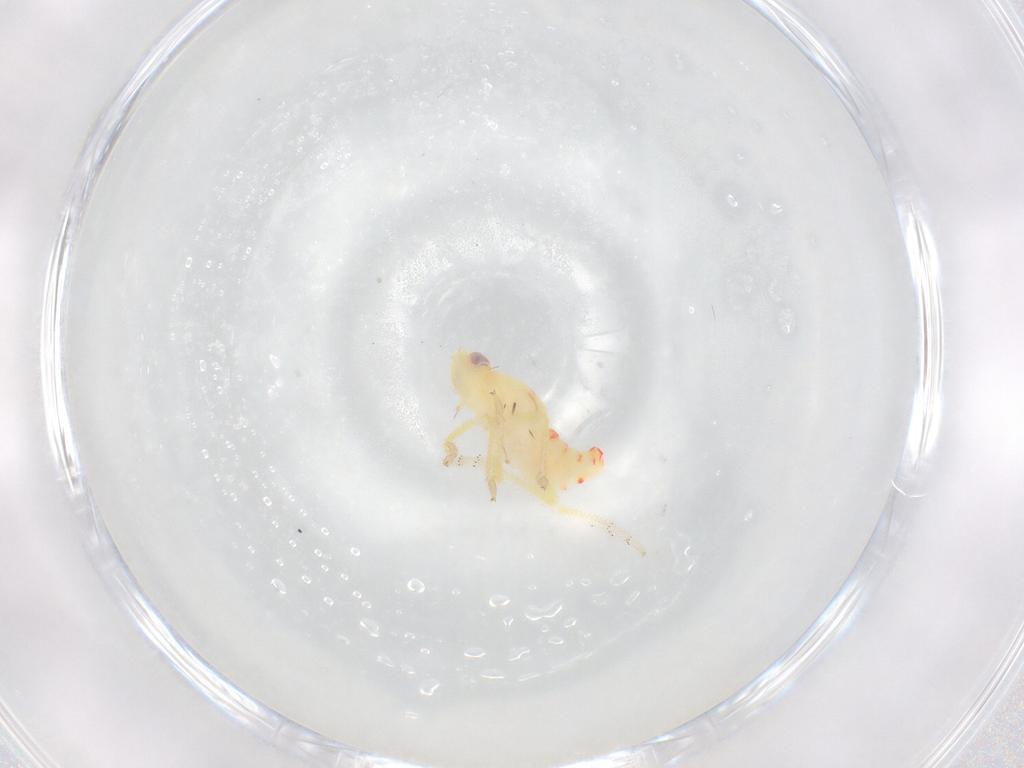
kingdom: Animalia
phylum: Arthropoda
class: Insecta
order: Hemiptera
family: Tropiduchidae
